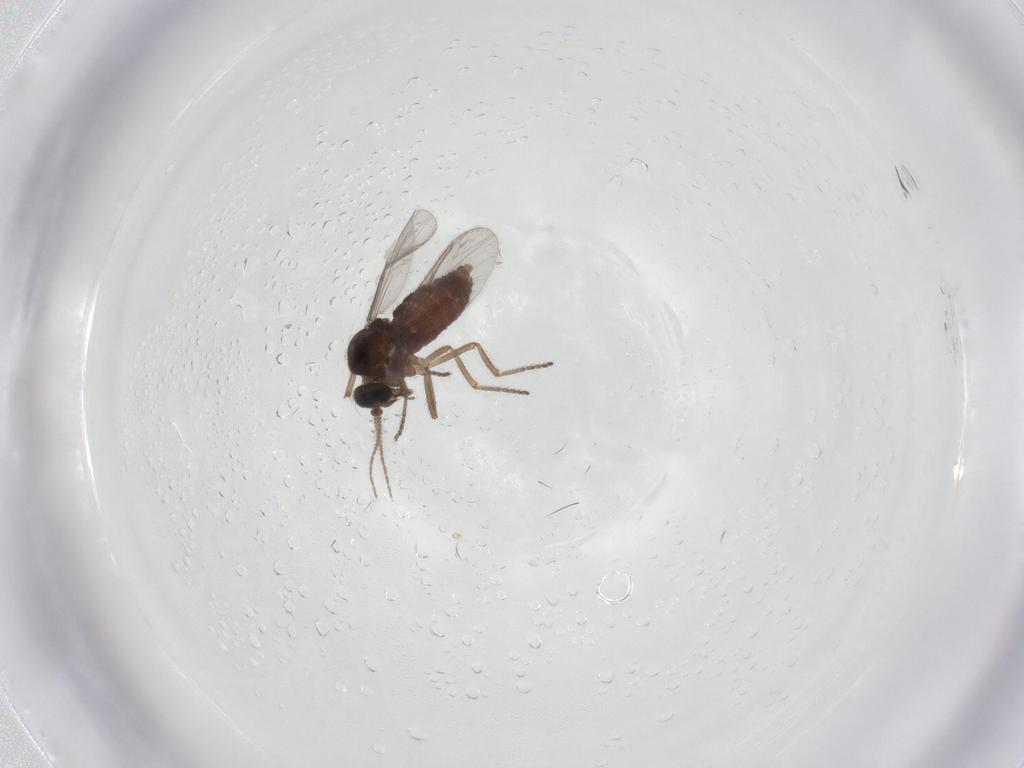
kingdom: Animalia
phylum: Arthropoda
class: Insecta
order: Diptera
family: Ceratopogonidae
